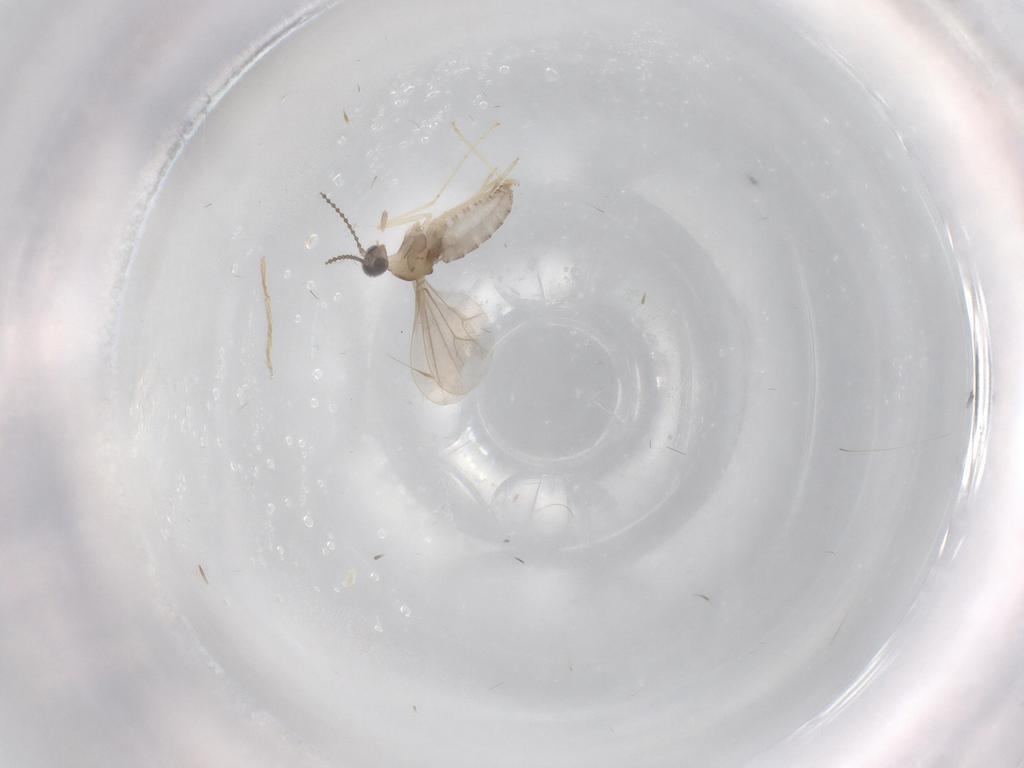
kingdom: Animalia
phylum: Arthropoda
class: Insecta
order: Diptera
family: Cecidomyiidae
